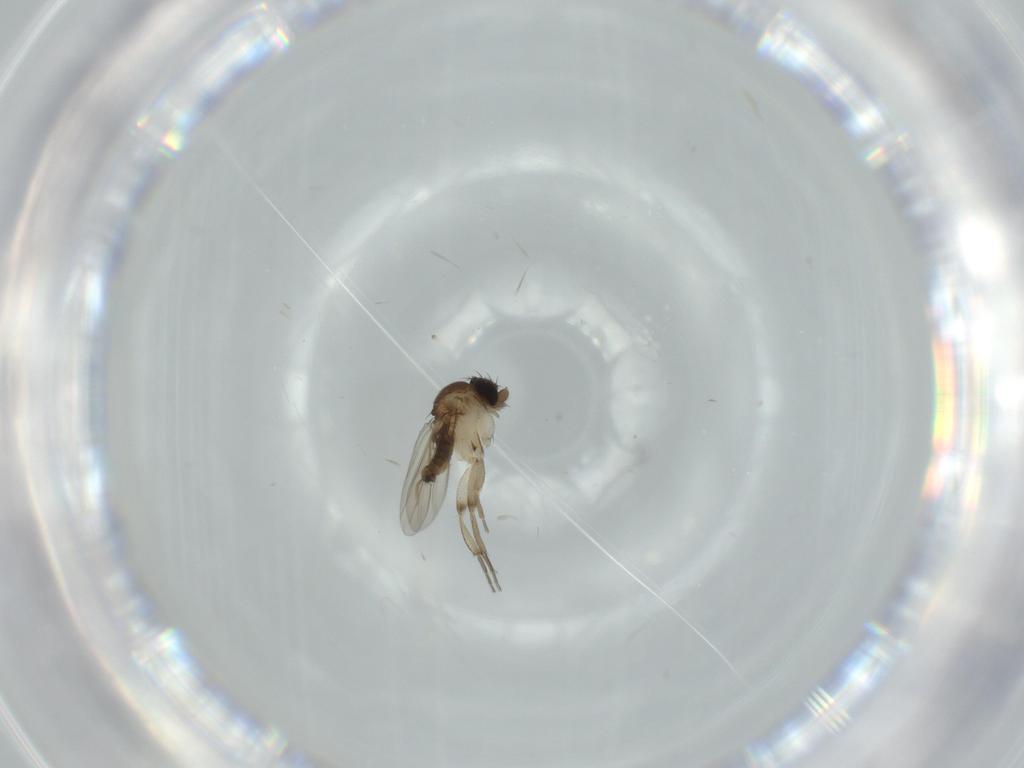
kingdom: Animalia
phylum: Arthropoda
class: Insecta
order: Diptera
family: Phoridae
